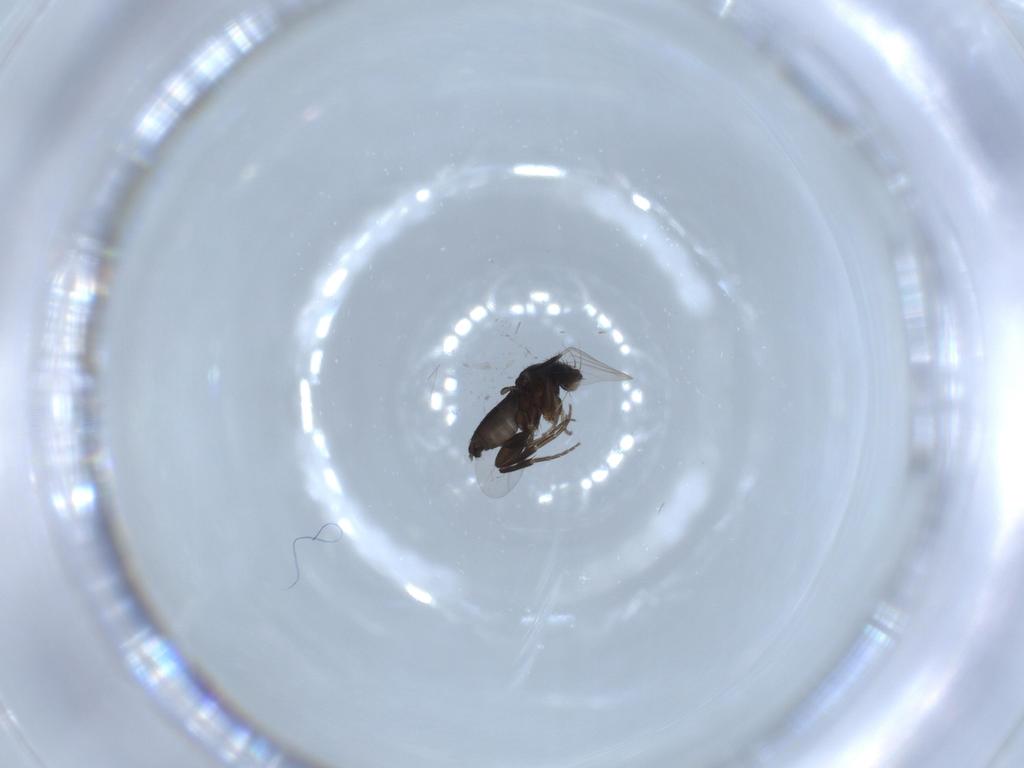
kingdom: Animalia
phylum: Arthropoda
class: Insecta
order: Diptera
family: Phoridae
